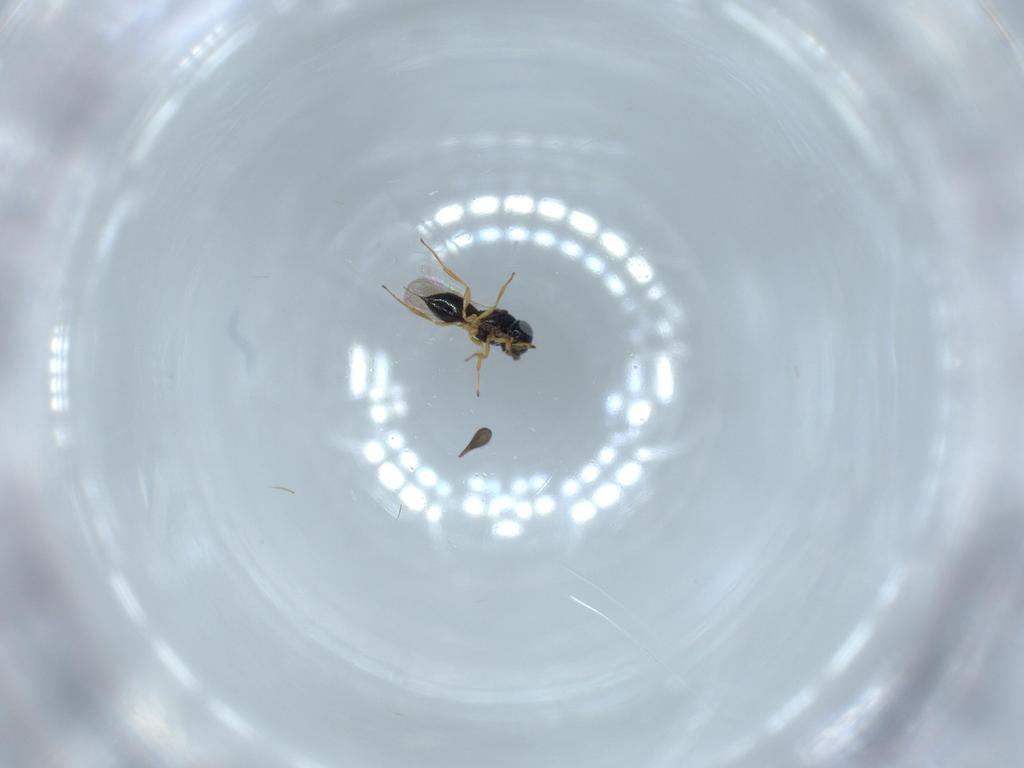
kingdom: Animalia
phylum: Arthropoda
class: Insecta
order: Hymenoptera
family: Scelionidae
